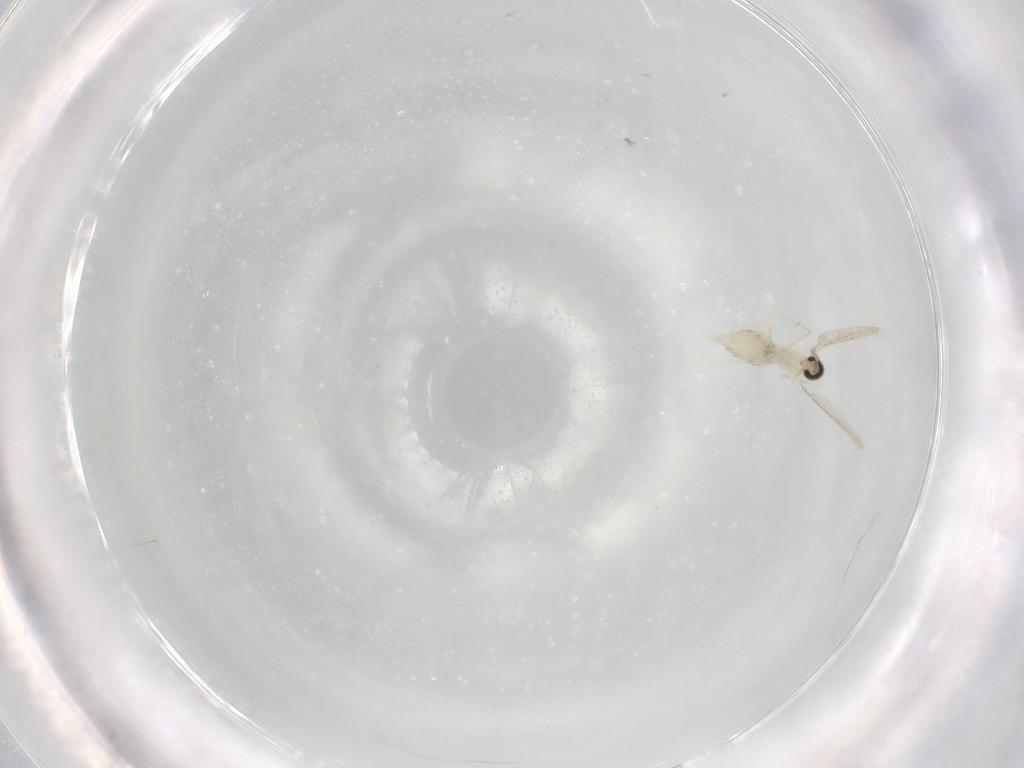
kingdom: Animalia
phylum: Arthropoda
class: Insecta
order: Diptera
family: Cecidomyiidae
